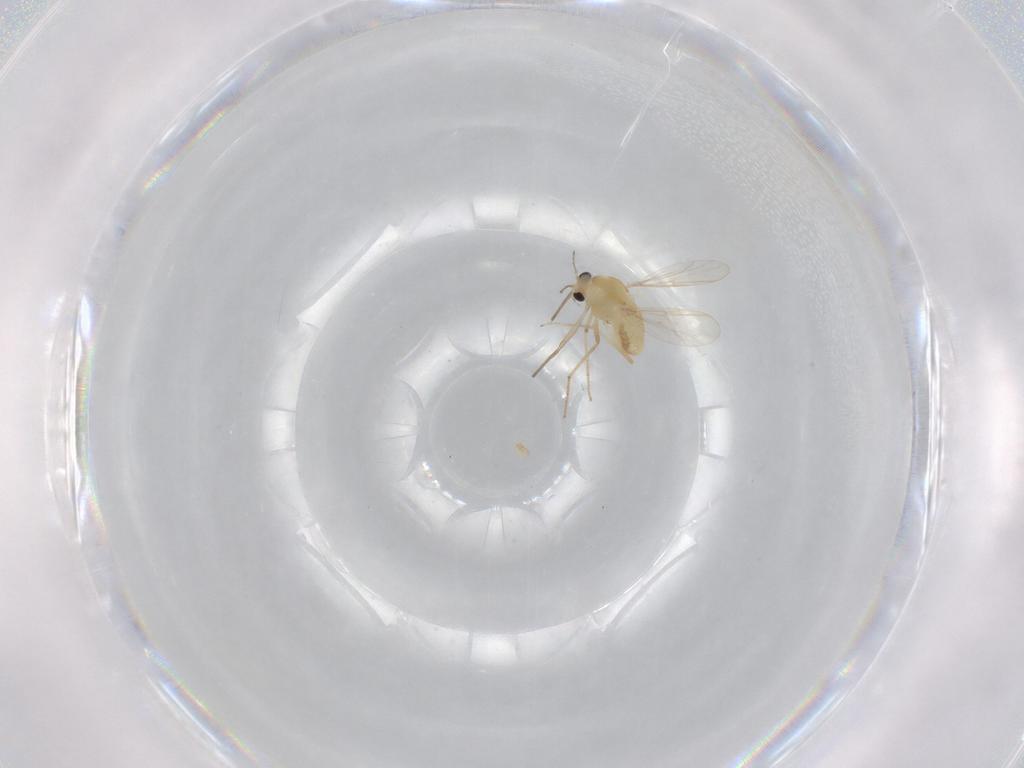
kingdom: Animalia
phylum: Arthropoda
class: Insecta
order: Diptera
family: Chironomidae
